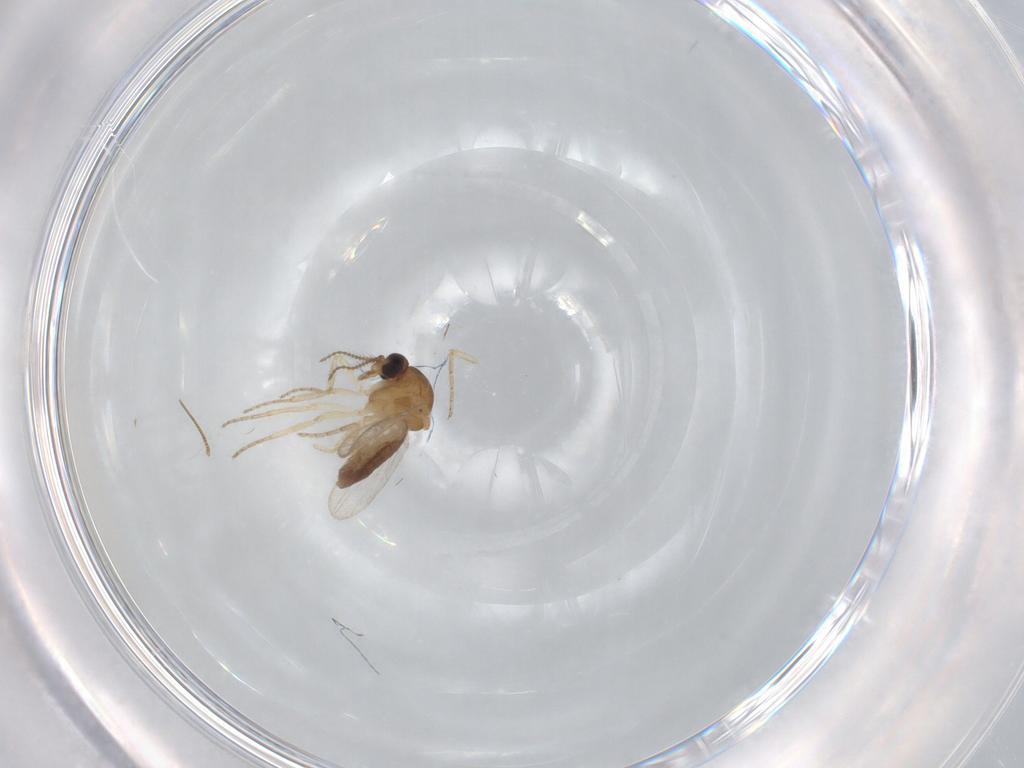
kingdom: Animalia
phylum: Arthropoda
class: Insecta
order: Diptera
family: Ceratopogonidae
